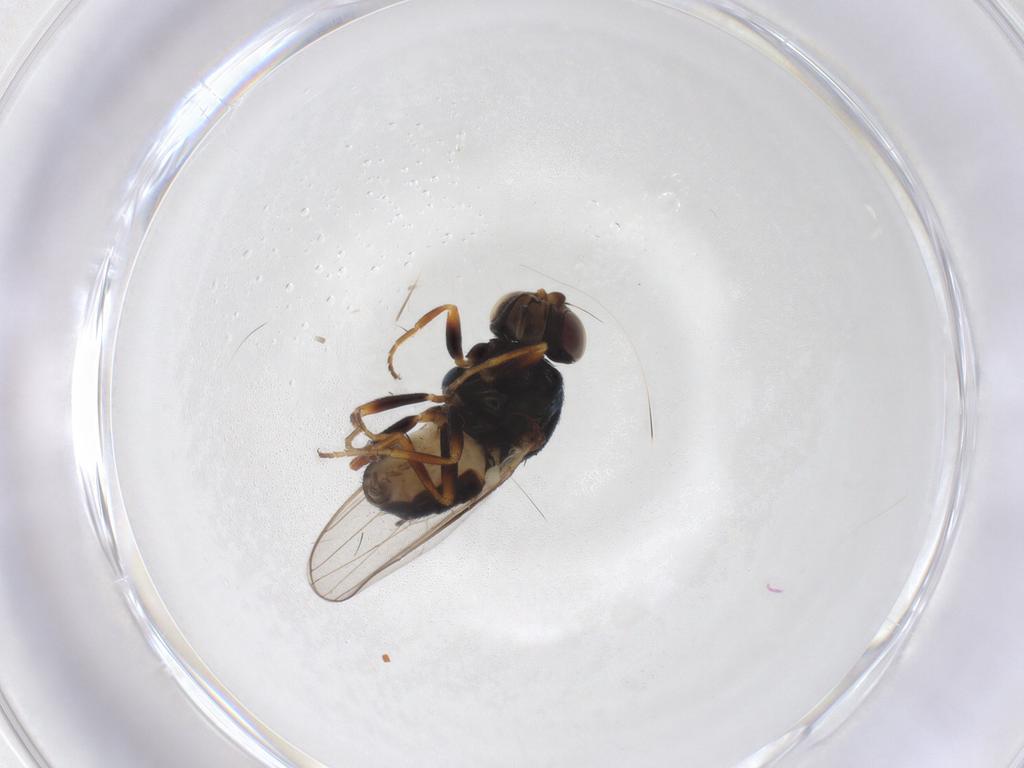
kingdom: Animalia
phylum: Arthropoda
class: Insecta
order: Diptera
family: Chloropidae
